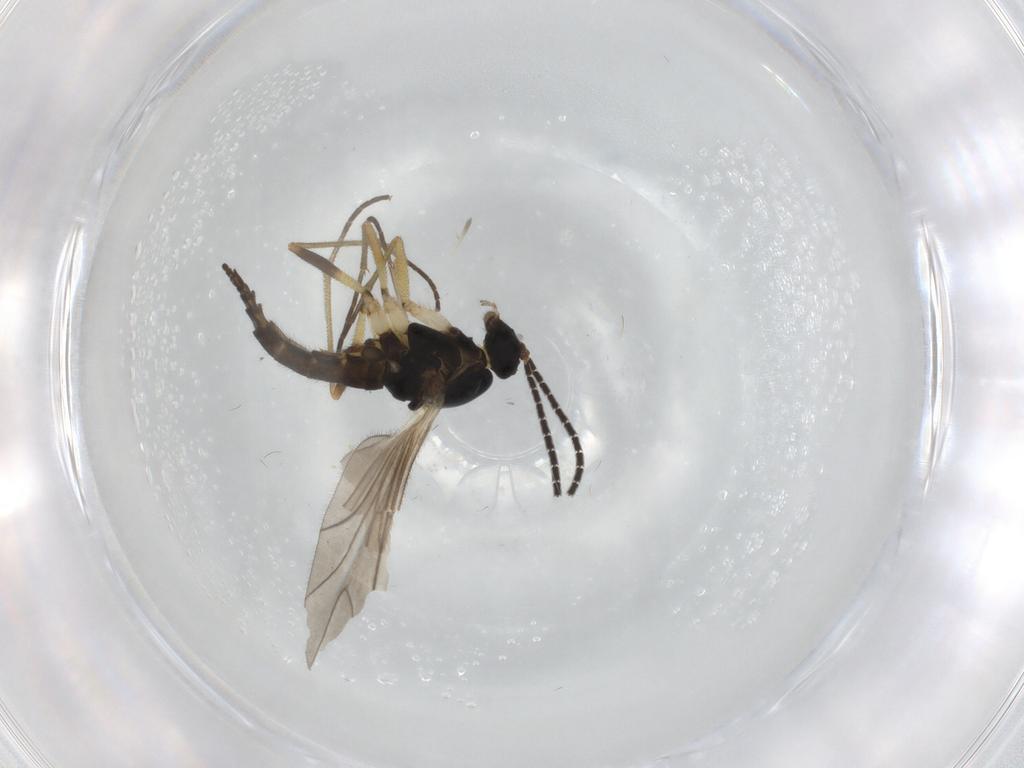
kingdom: Animalia
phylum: Arthropoda
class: Insecta
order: Diptera
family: Sciaridae
